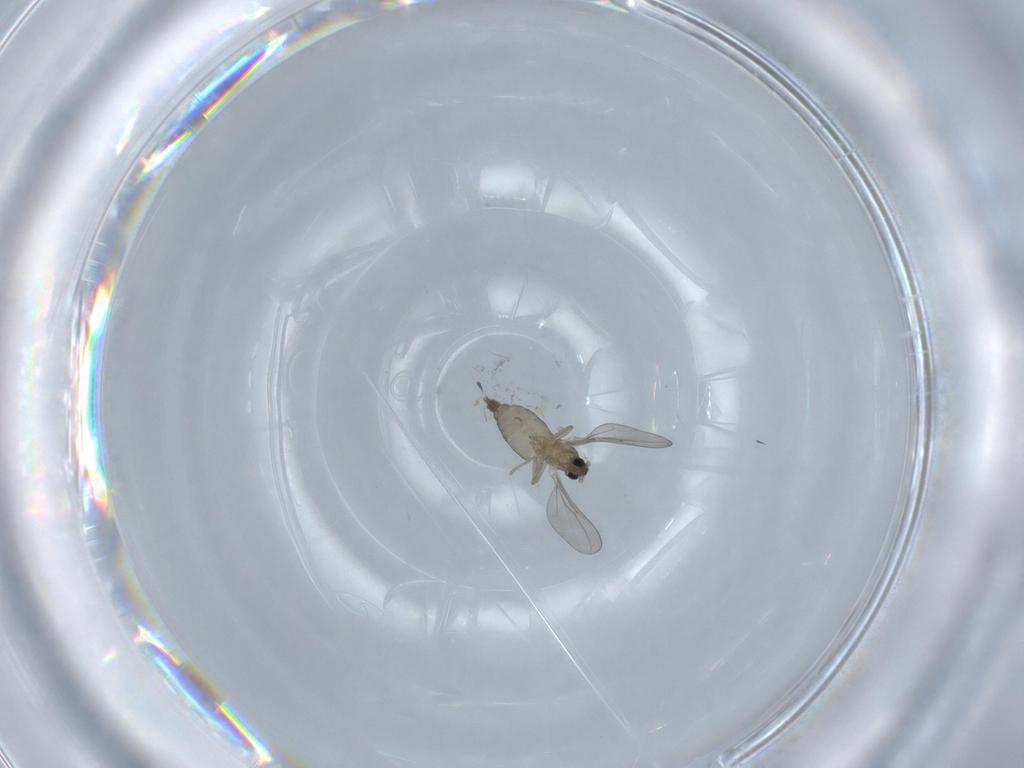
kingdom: Animalia
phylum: Arthropoda
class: Insecta
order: Diptera
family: Cecidomyiidae
